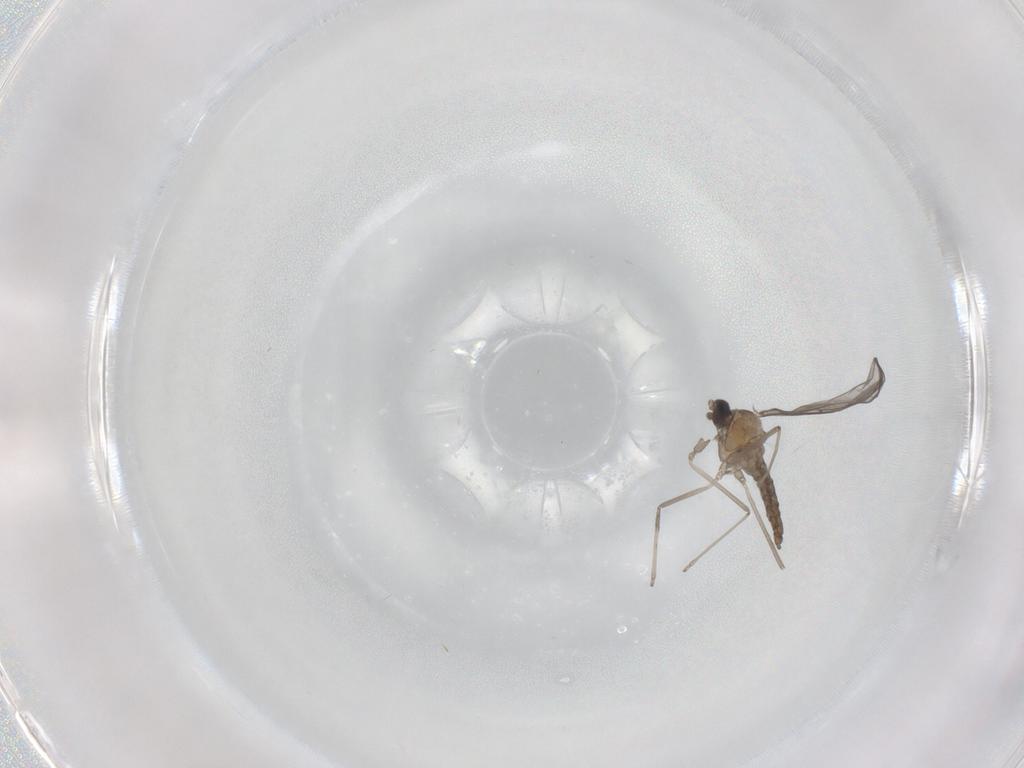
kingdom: Animalia
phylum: Arthropoda
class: Insecta
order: Diptera
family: Cecidomyiidae
